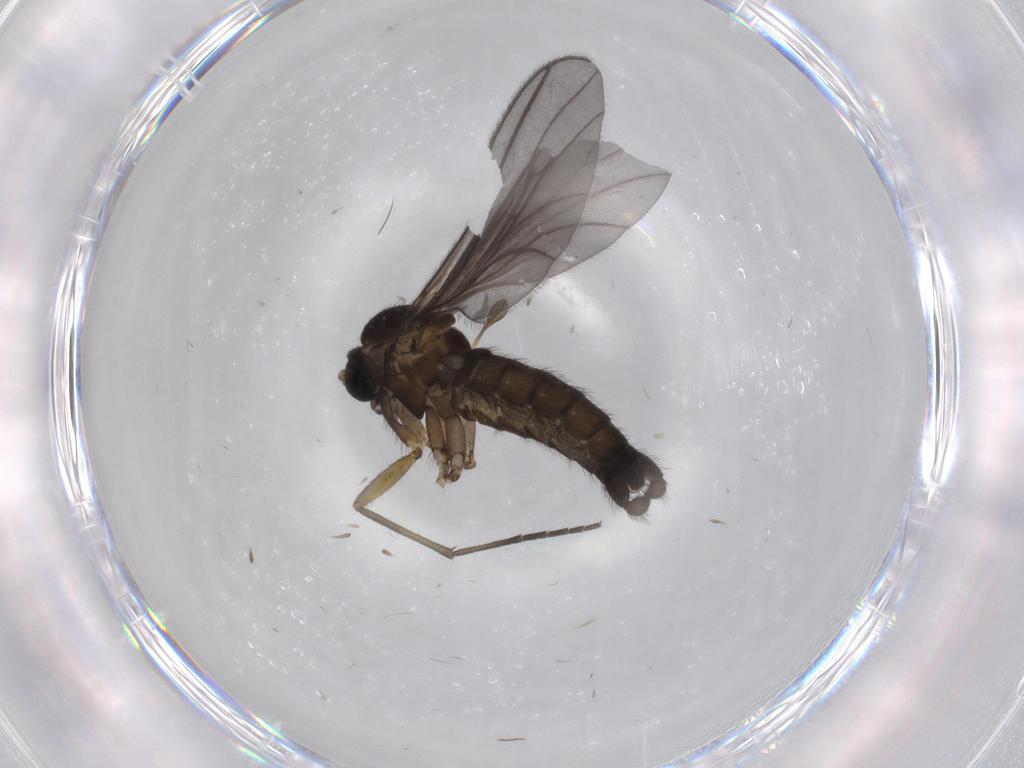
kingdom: Animalia
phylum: Arthropoda
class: Insecta
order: Diptera
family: Sciaridae
